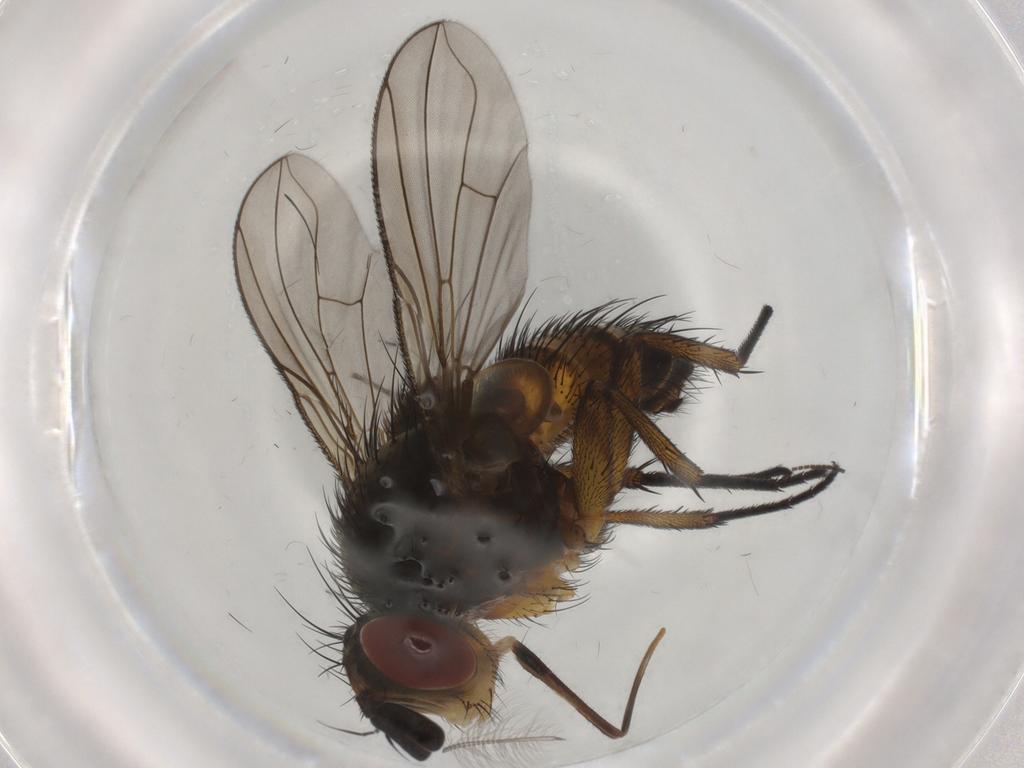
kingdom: Animalia
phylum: Arthropoda
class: Insecta
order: Diptera
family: Tachinidae
